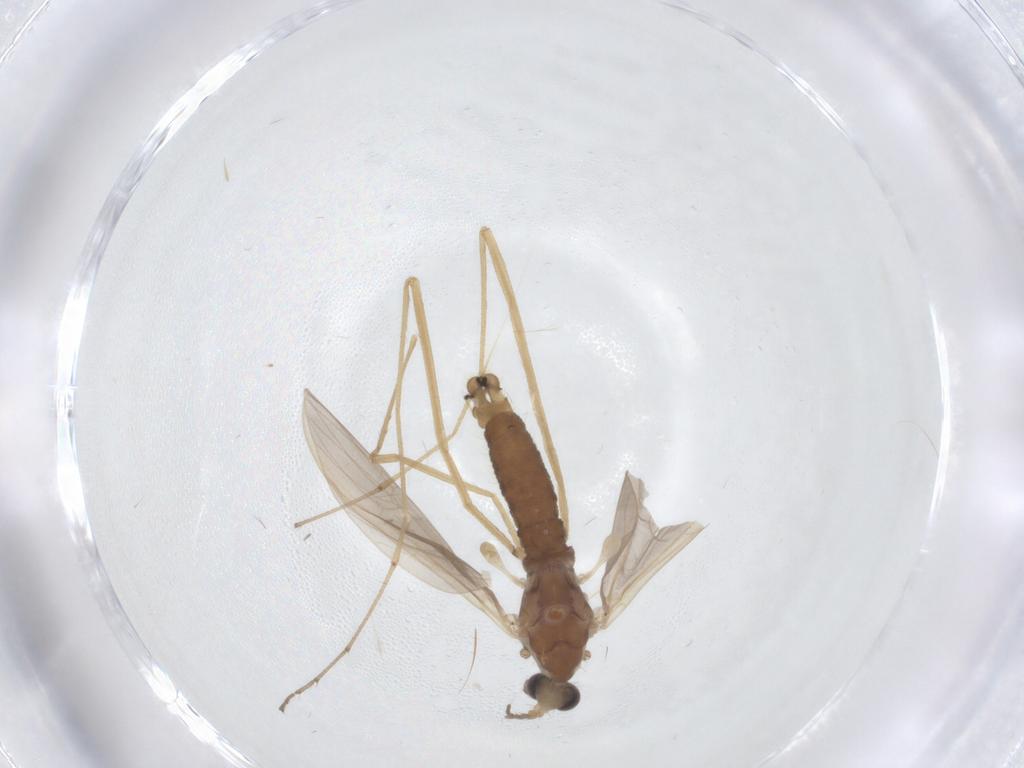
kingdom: Animalia
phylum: Arthropoda
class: Insecta
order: Diptera
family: Limoniidae
